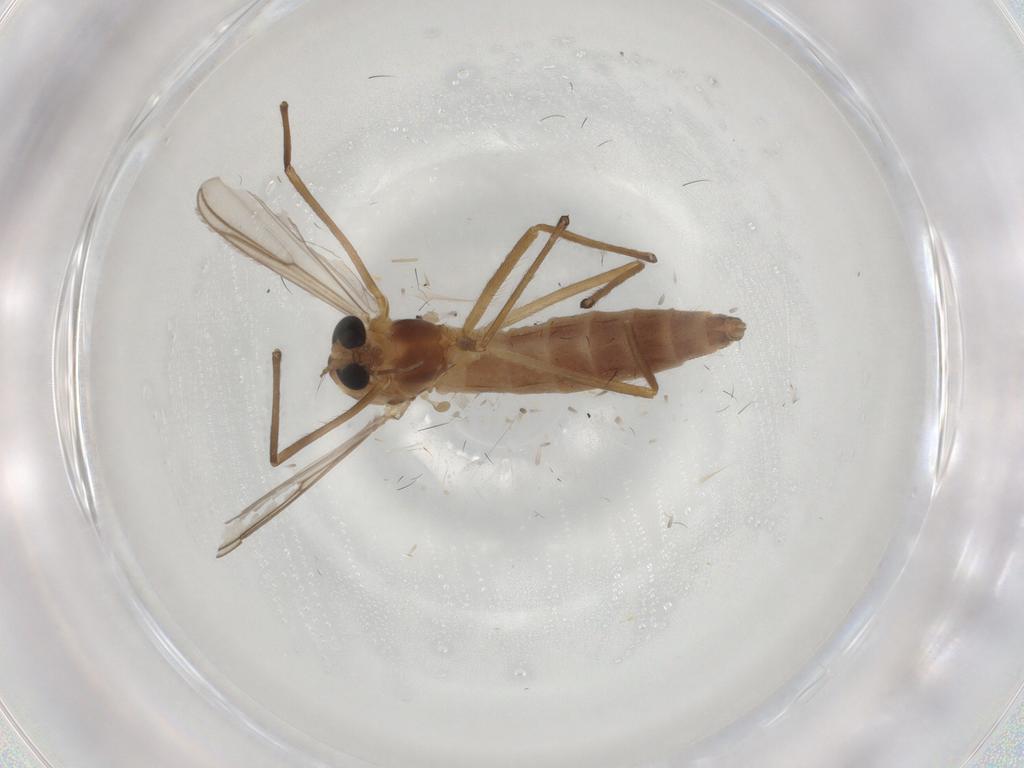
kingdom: Animalia
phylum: Arthropoda
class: Insecta
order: Diptera
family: Chironomidae
